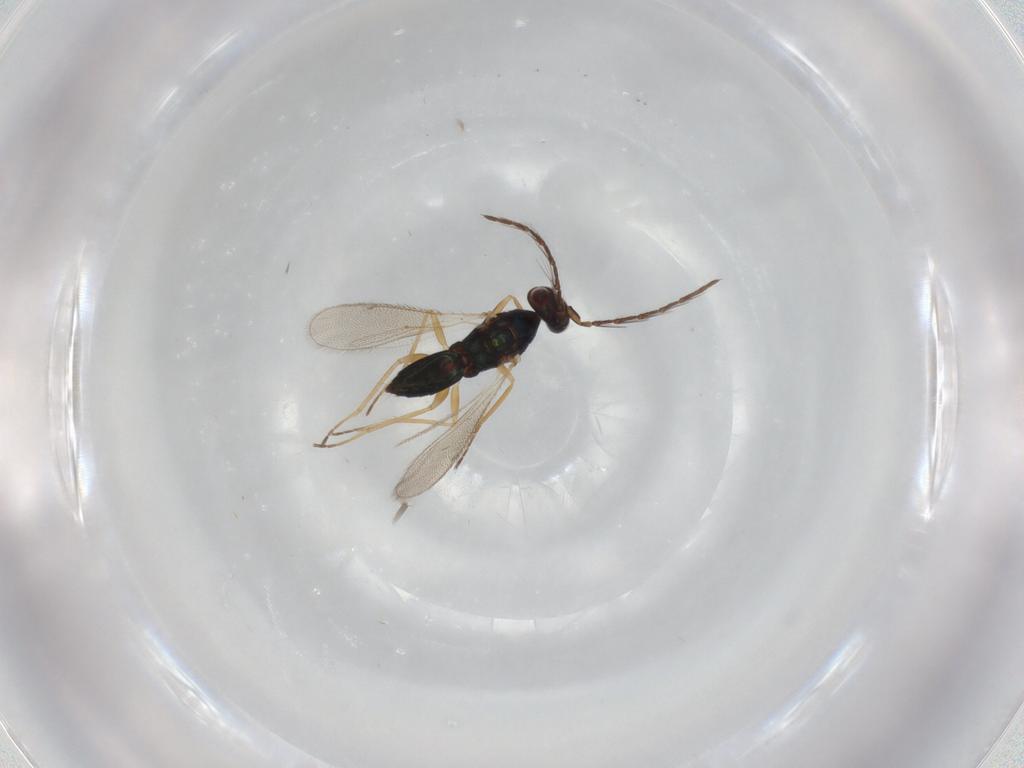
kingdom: Animalia
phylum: Arthropoda
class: Insecta
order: Hymenoptera
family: Eulophidae
